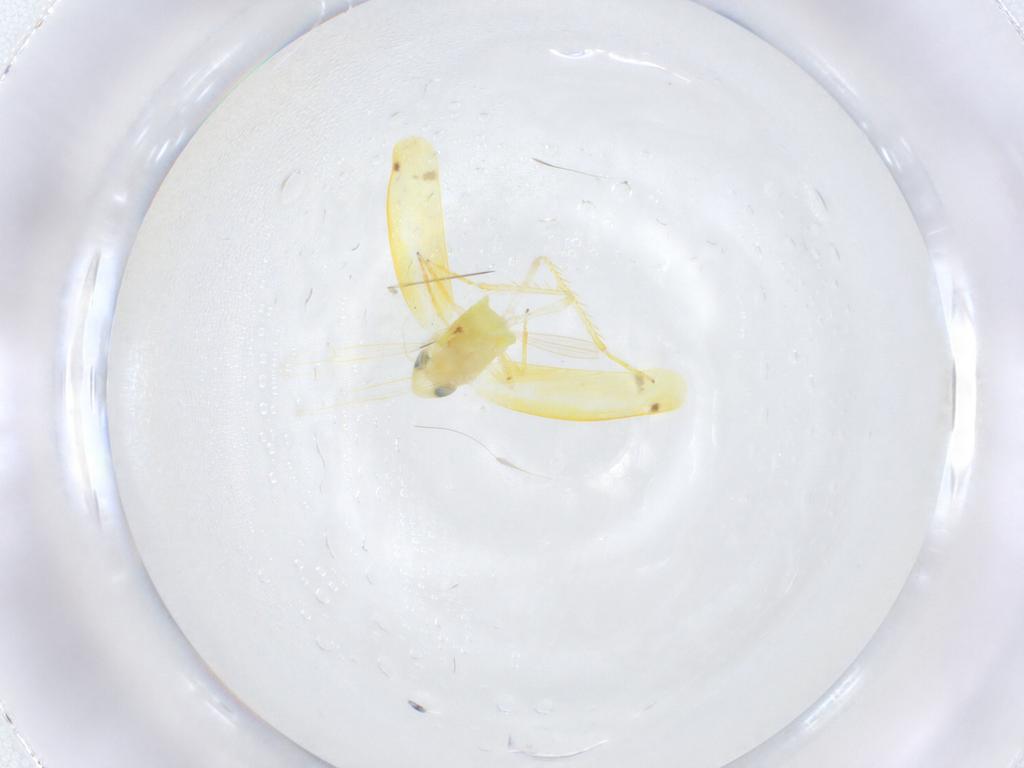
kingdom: Animalia
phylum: Arthropoda
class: Insecta
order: Hemiptera
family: Cicadellidae
